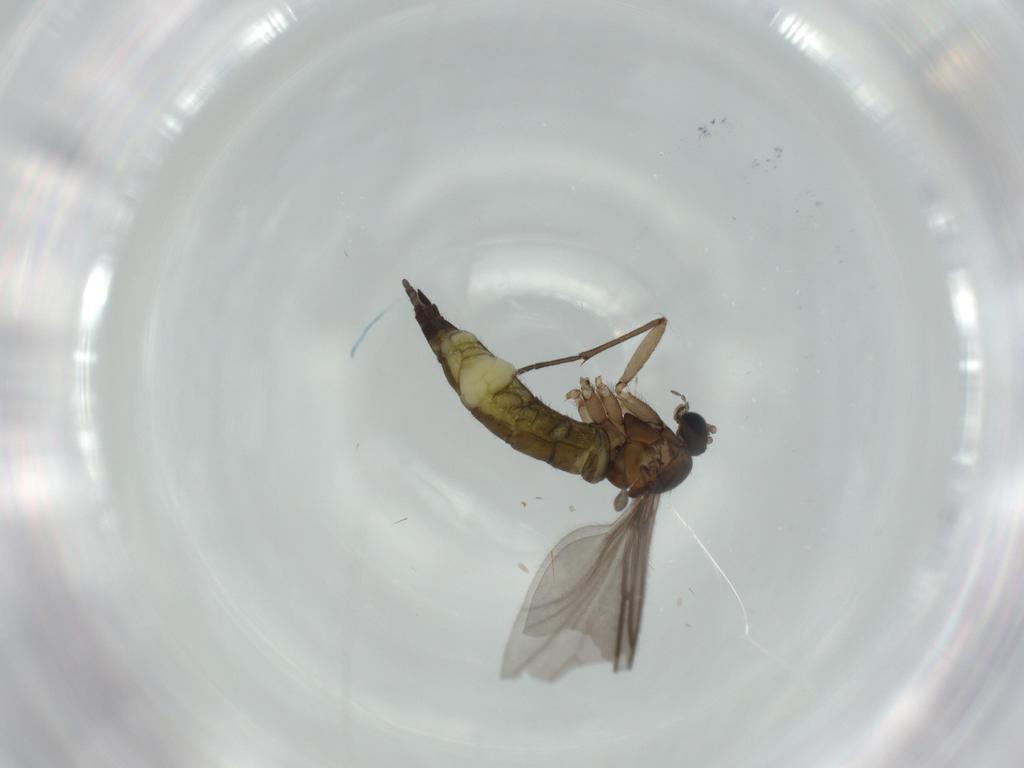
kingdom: Animalia
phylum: Arthropoda
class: Insecta
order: Diptera
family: Sciaridae
